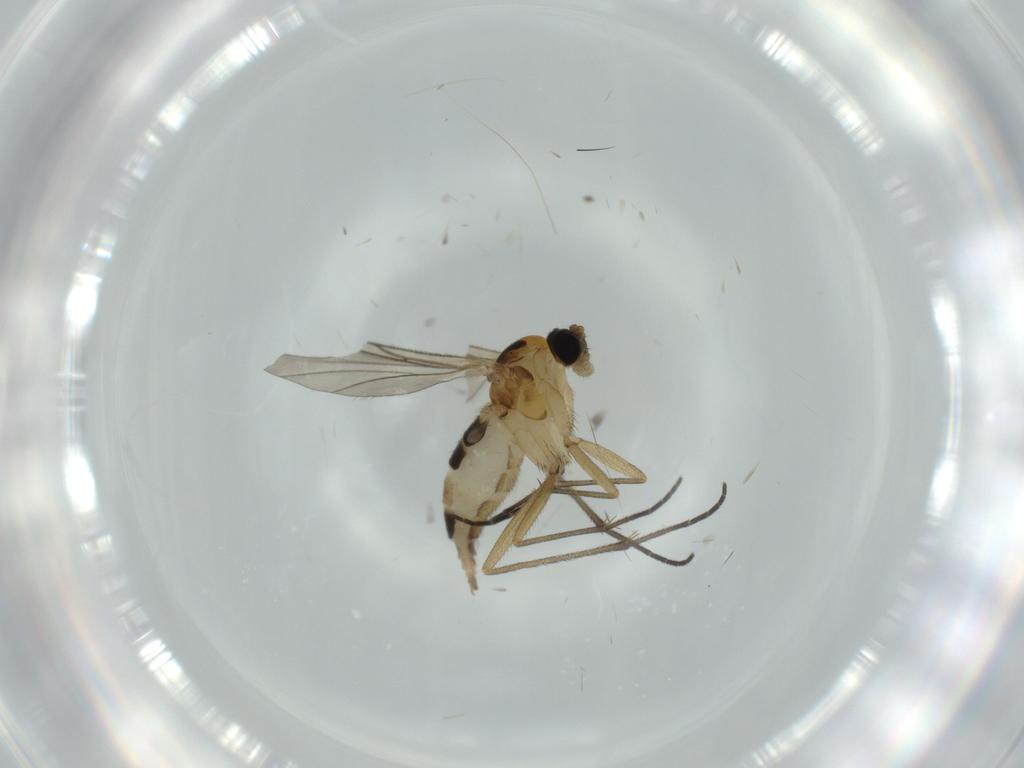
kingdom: Animalia
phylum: Arthropoda
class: Insecta
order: Diptera
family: Sciaridae
